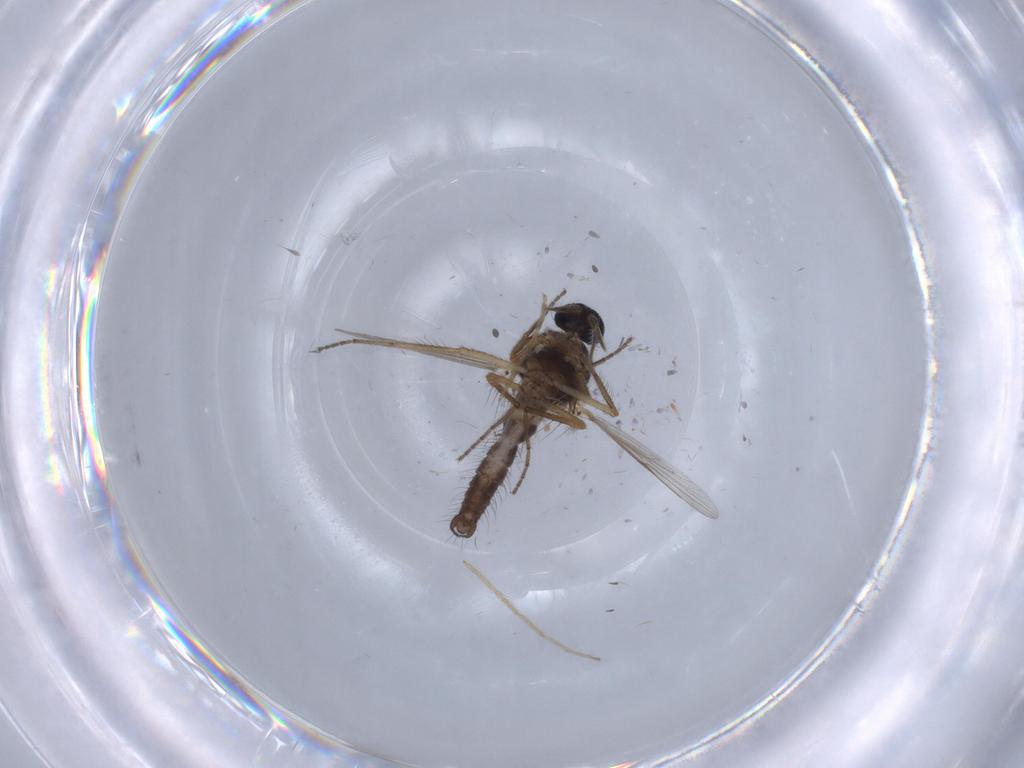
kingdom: Animalia
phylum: Arthropoda
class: Insecta
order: Diptera
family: Ceratopogonidae
